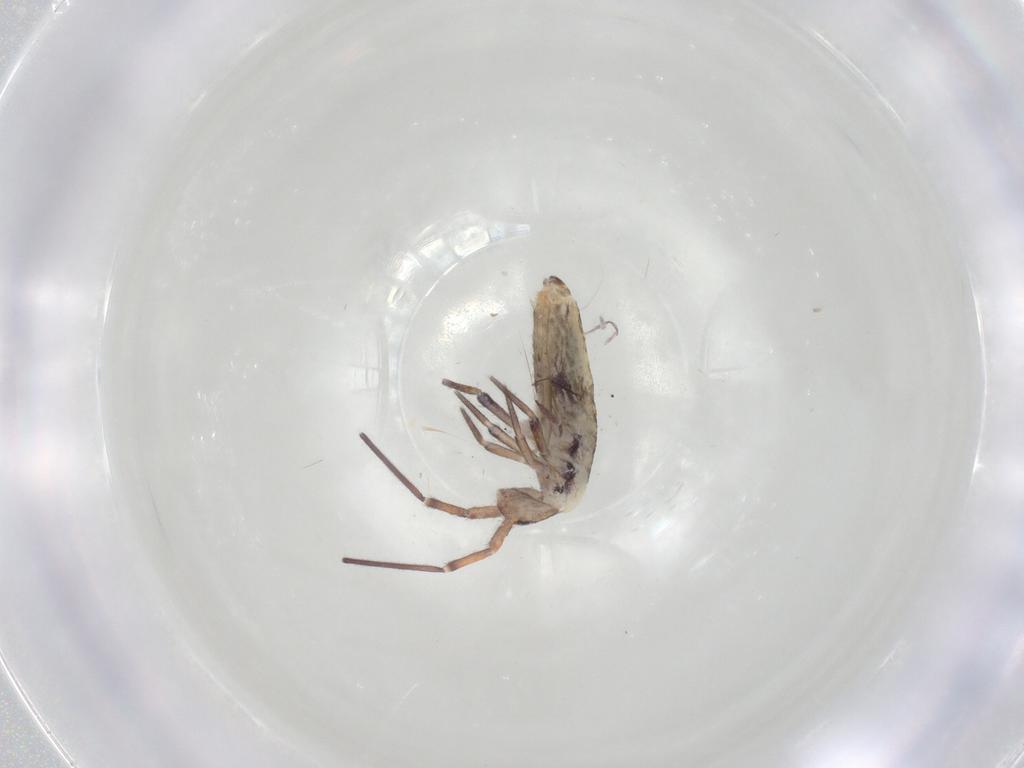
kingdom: Animalia
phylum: Arthropoda
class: Collembola
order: Entomobryomorpha
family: Entomobryidae
